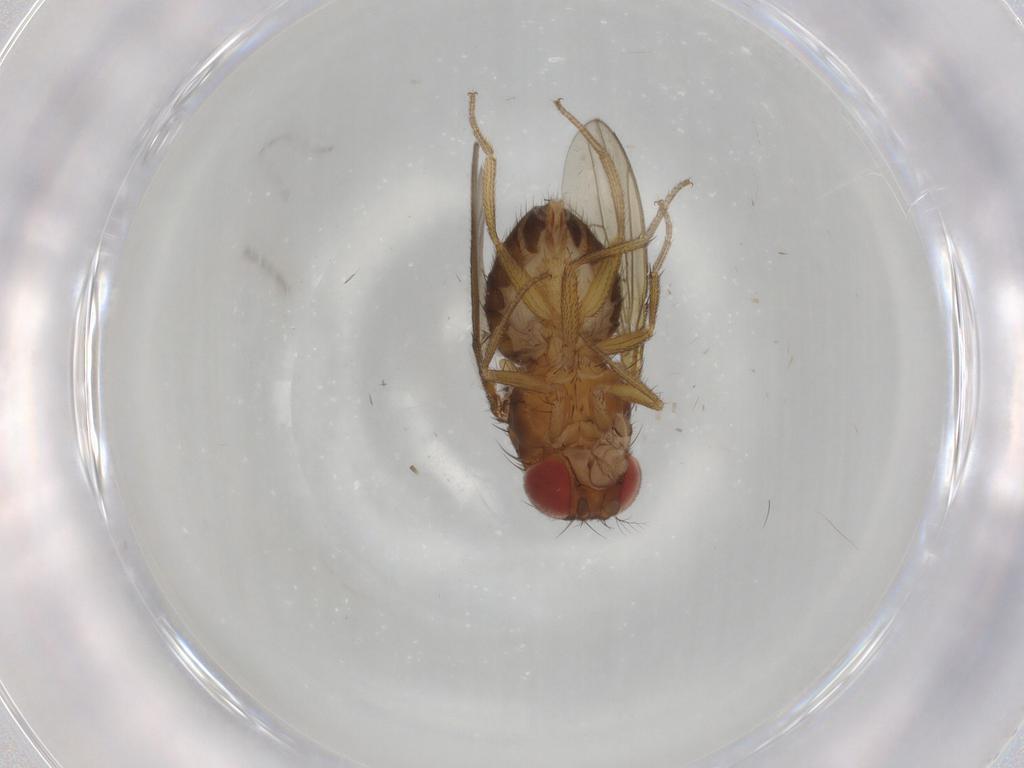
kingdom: Animalia
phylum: Arthropoda
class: Insecta
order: Diptera
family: Drosophilidae
